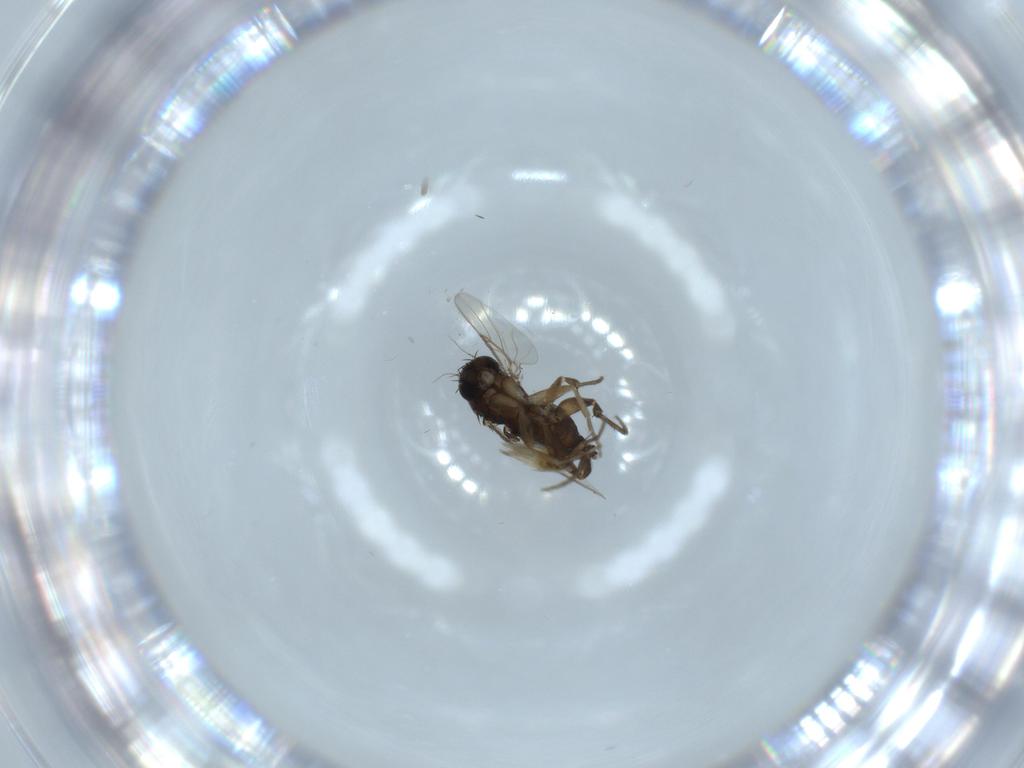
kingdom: Animalia
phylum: Arthropoda
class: Insecta
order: Diptera
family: Phoridae
